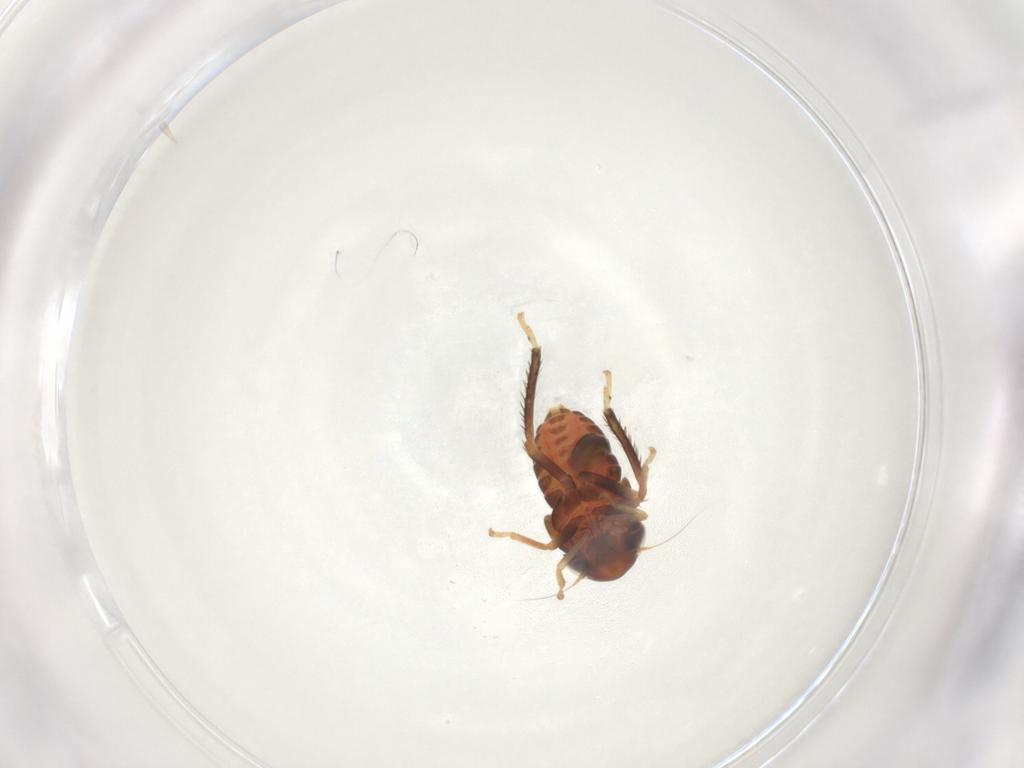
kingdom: Animalia
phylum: Arthropoda
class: Insecta
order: Hemiptera
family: Cicadellidae
